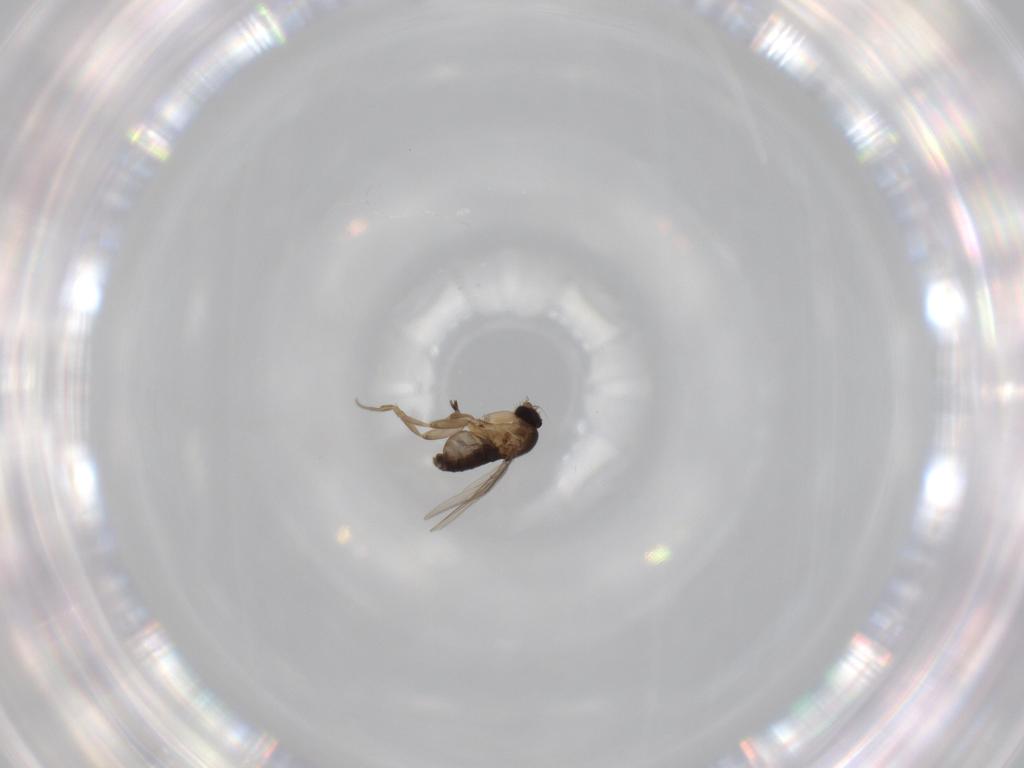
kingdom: Animalia
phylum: Arthropoda
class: Insecta
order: Diptera
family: Phoridae
